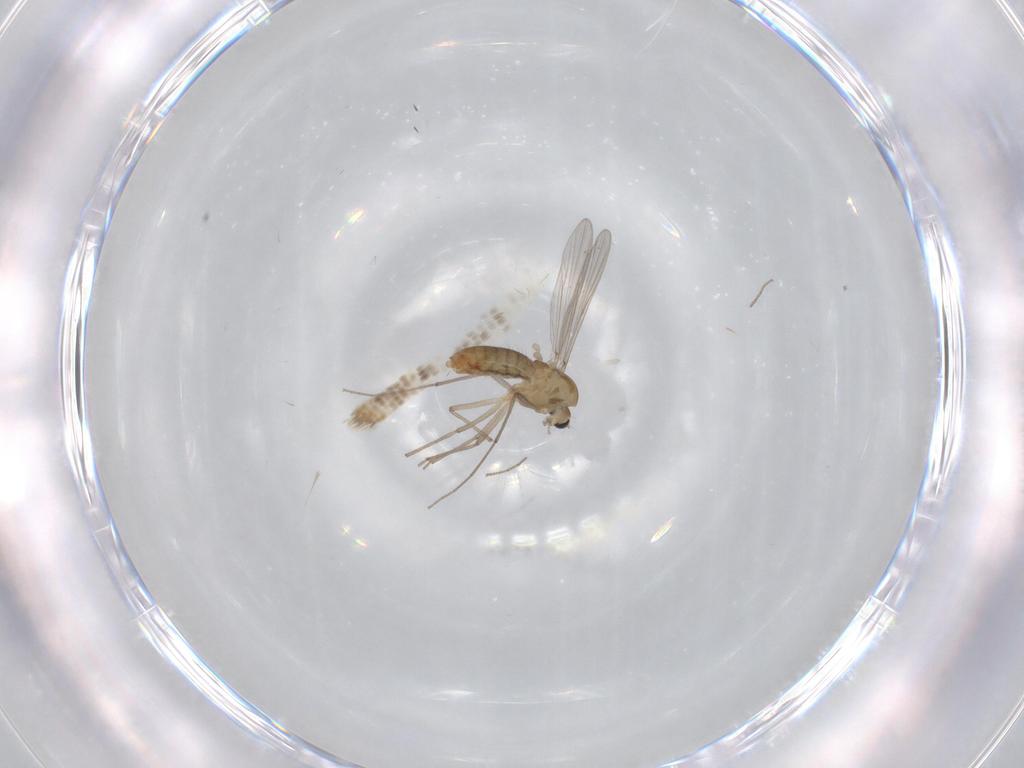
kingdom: Animalia
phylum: Arthropoda
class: Insecta
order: Diptera
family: Chironomidae
